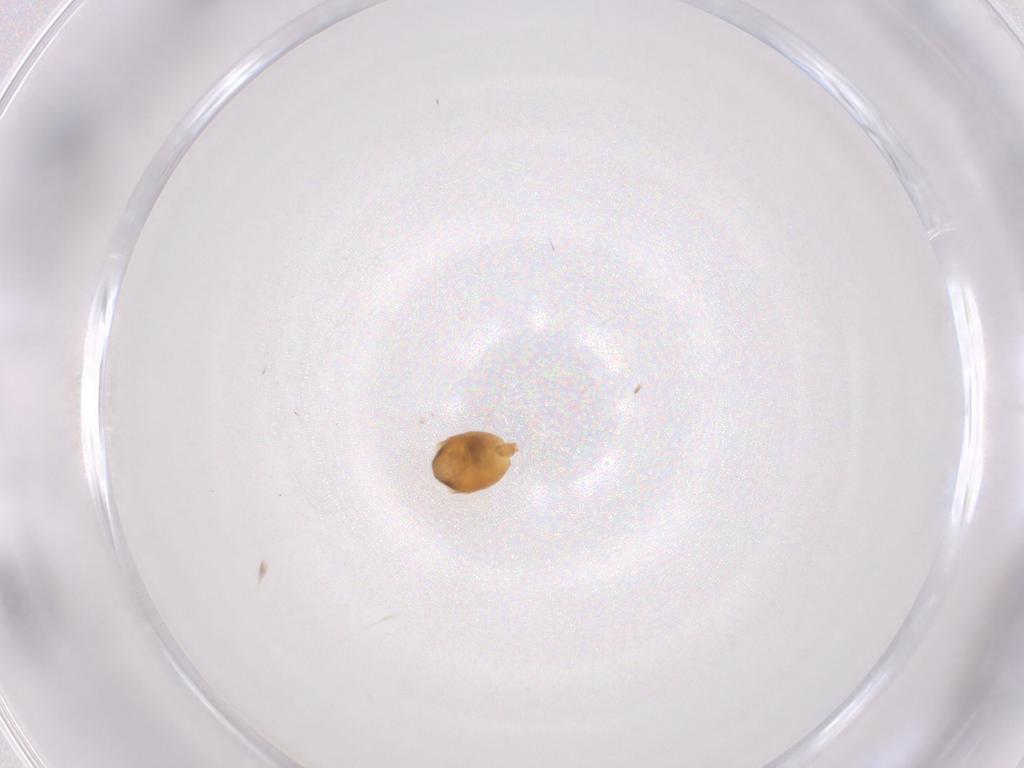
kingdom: Animalia
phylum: Arthropoda
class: Insecta
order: Hymenoptera
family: Formicidae
